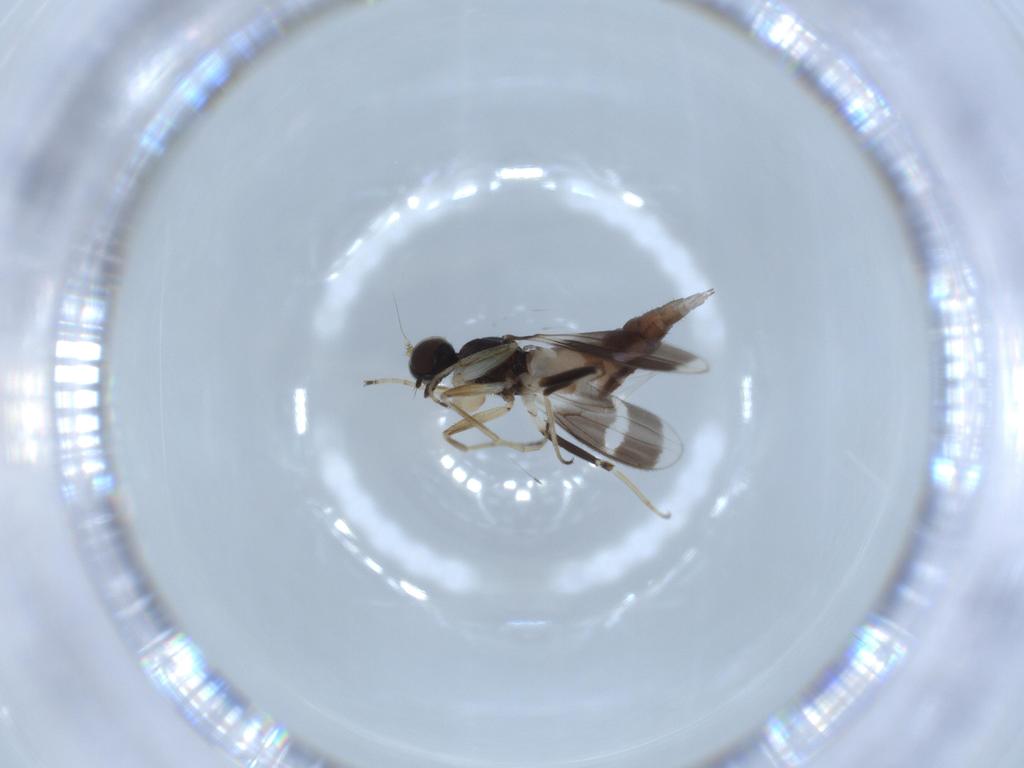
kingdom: Animalia
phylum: Arthropoda
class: Insecta
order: Diptera
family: Hybotidae
